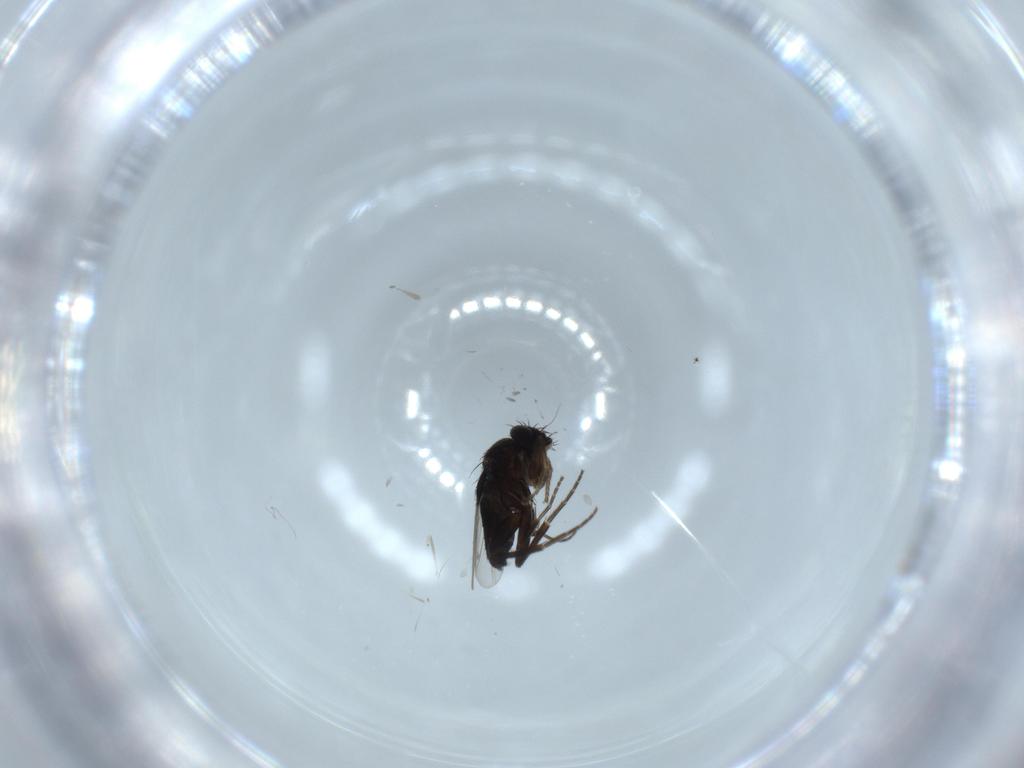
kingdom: Animalia
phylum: Arthropoda
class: Insecta
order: Diptera
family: Phoridae
